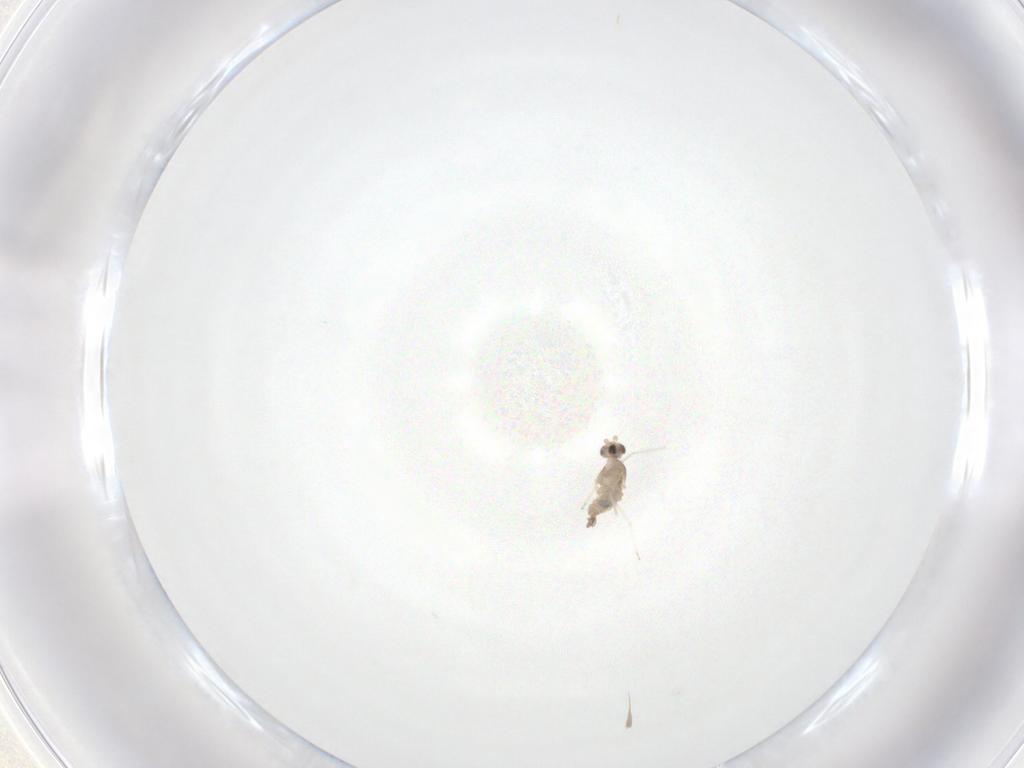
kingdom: Animalia
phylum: Arthropoda
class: Insecta
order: Diptera
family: Cecidomyiidae
